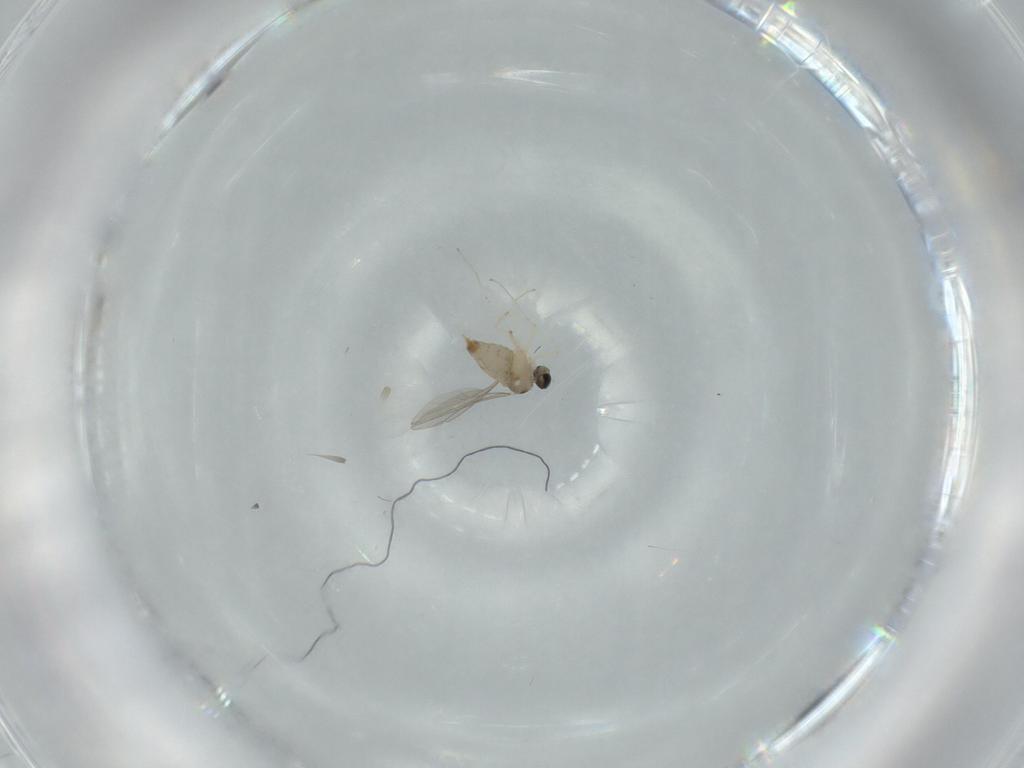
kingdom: Animalia
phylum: Arthropoda
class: Insecta
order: Diptera
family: Cecidomyiidae
